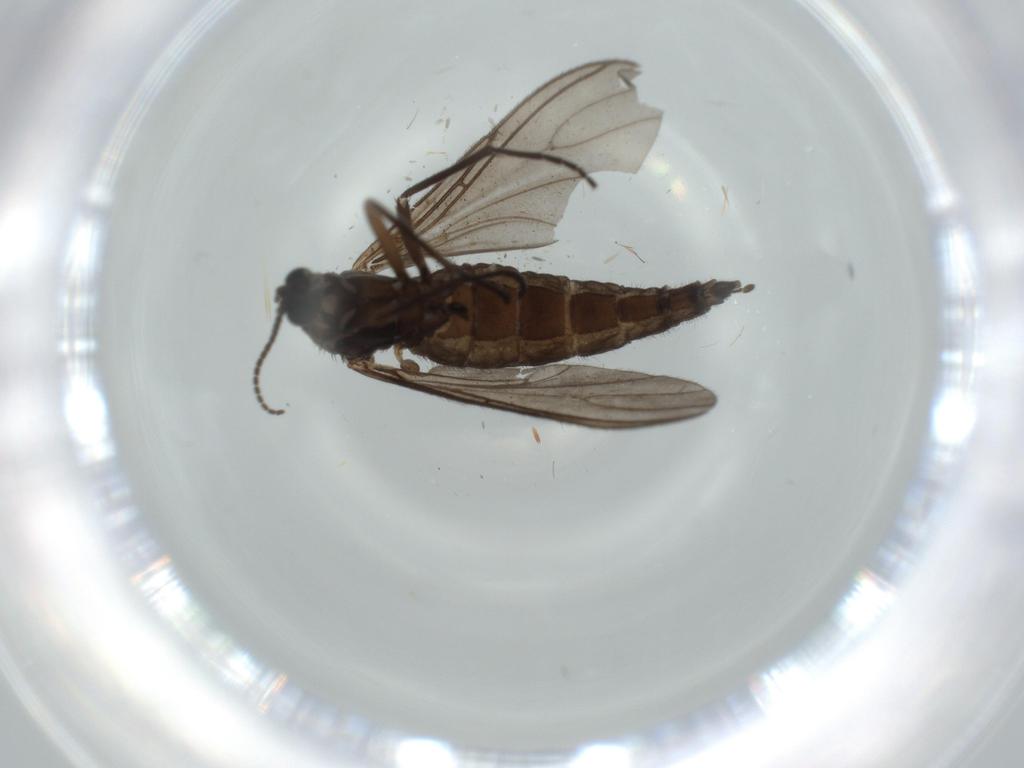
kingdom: Animalia
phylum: Arthropoda
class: Insecta
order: Diptera
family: Sciaridae
